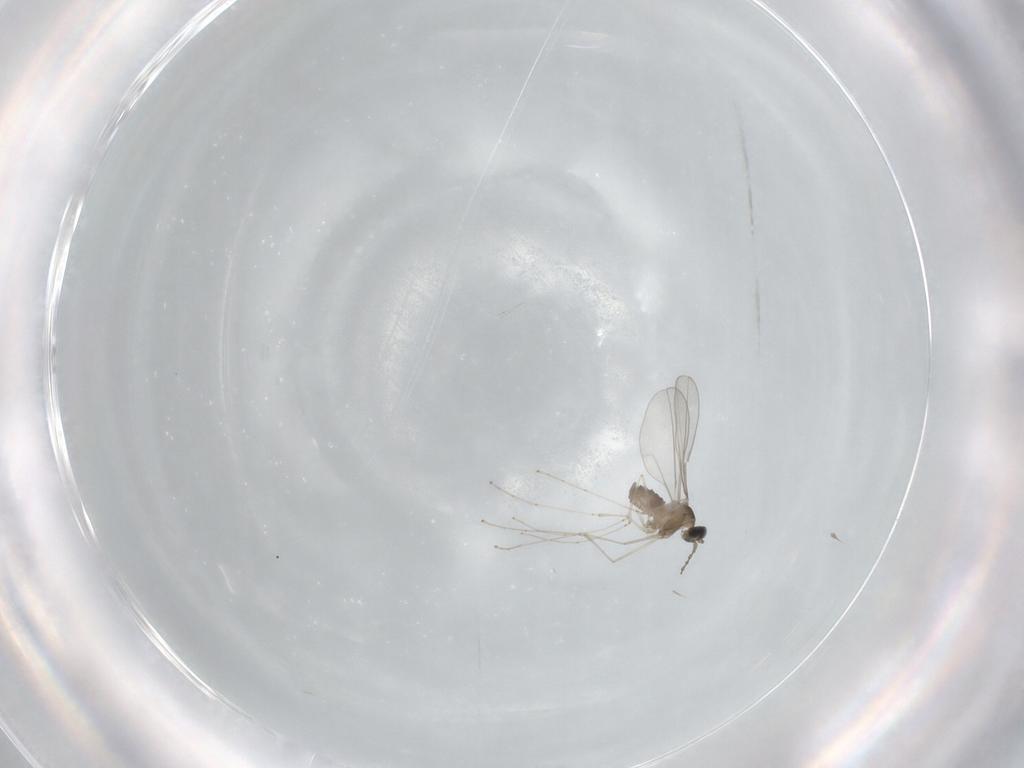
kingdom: Animalia
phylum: Arthropoda
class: Insecta
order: Diptera
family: Cecidomyiidae
